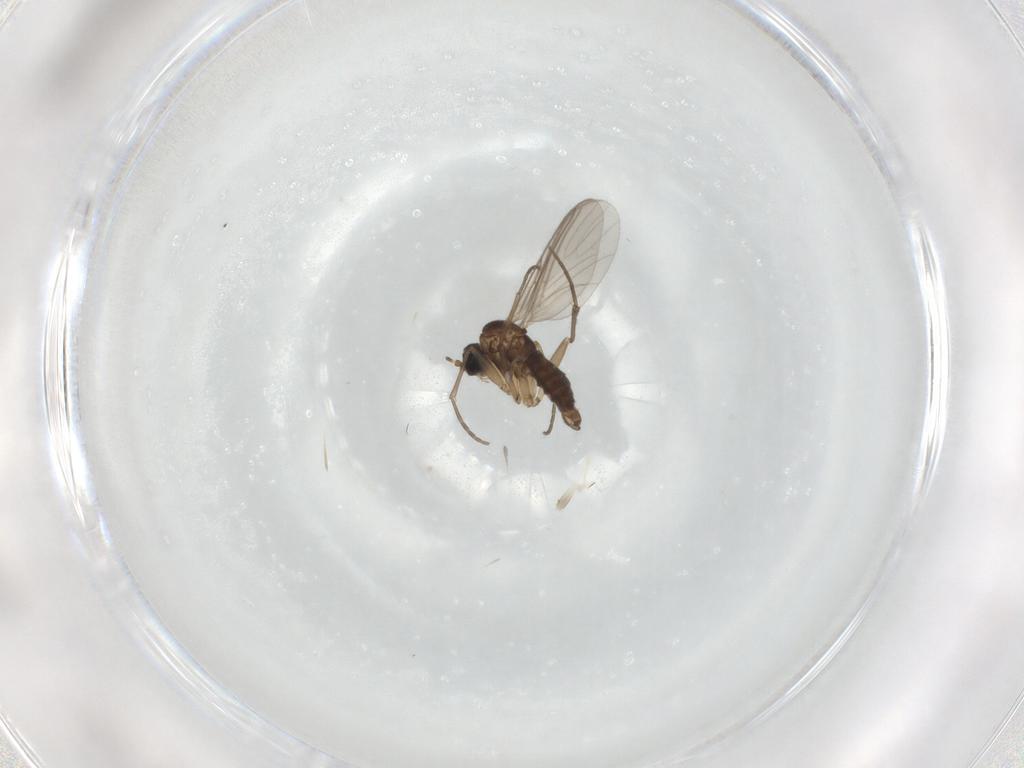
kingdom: Animalia
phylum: Arthropoda
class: Insecta
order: Diptera
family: Sciaridae
